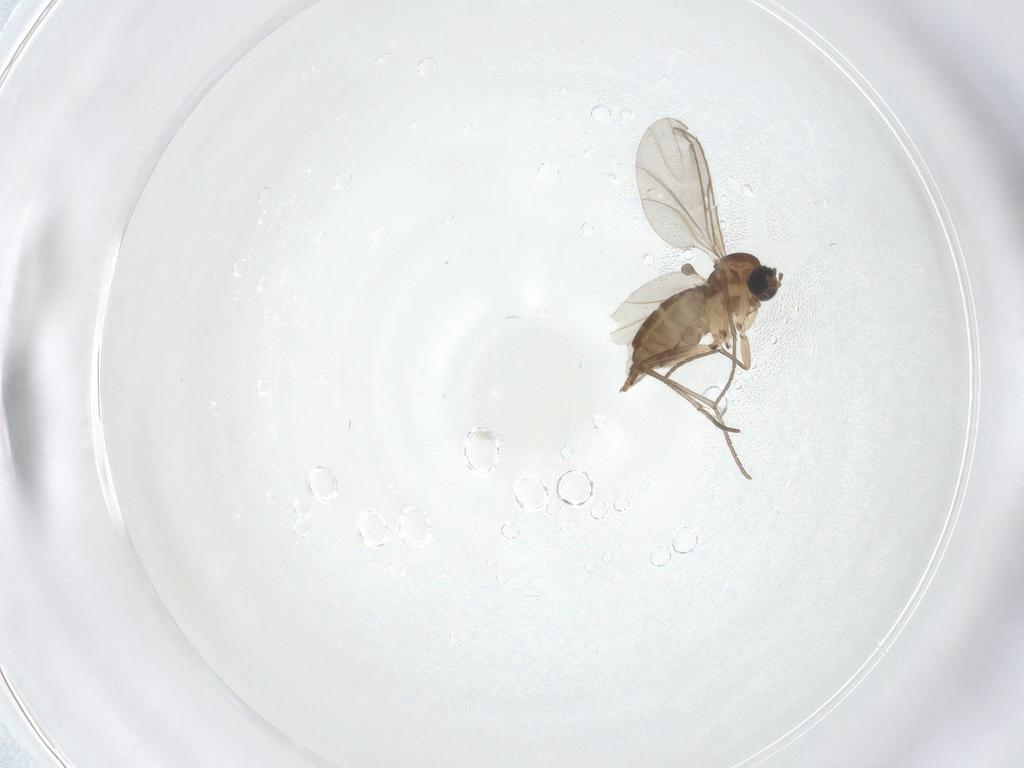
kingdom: Animalia
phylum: Arthropoda
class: Insecta
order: Diptera
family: Sciaridae
